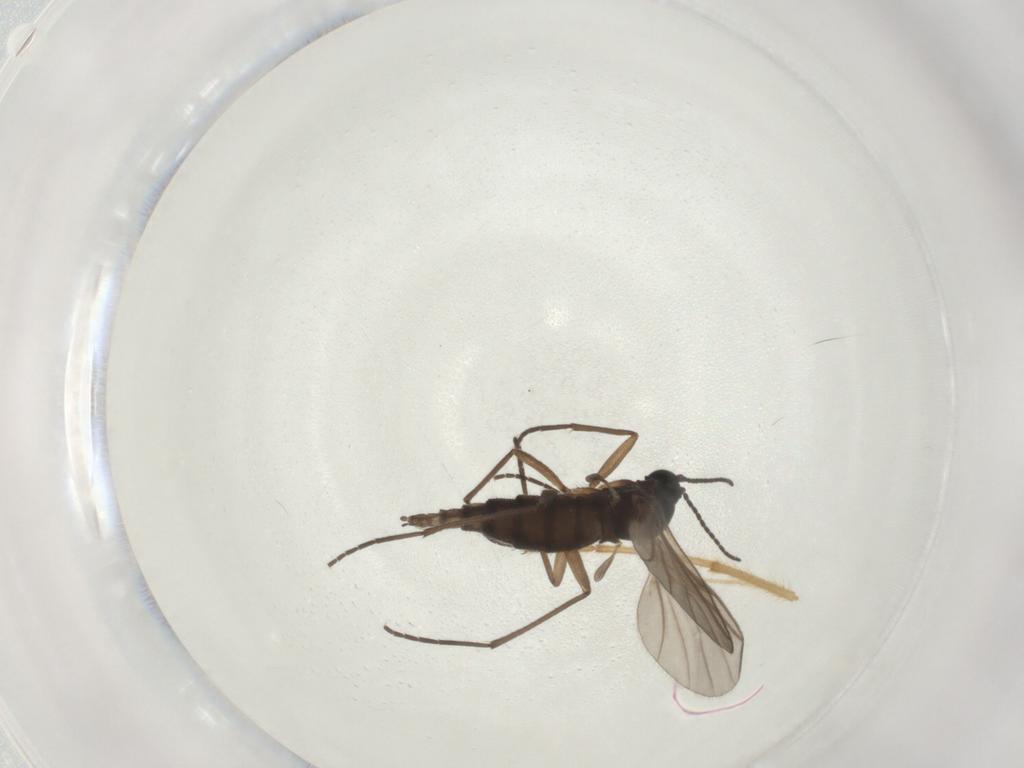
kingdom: Animalia
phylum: Arthropoda
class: Insecta
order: Diptera
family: Sciaridae
